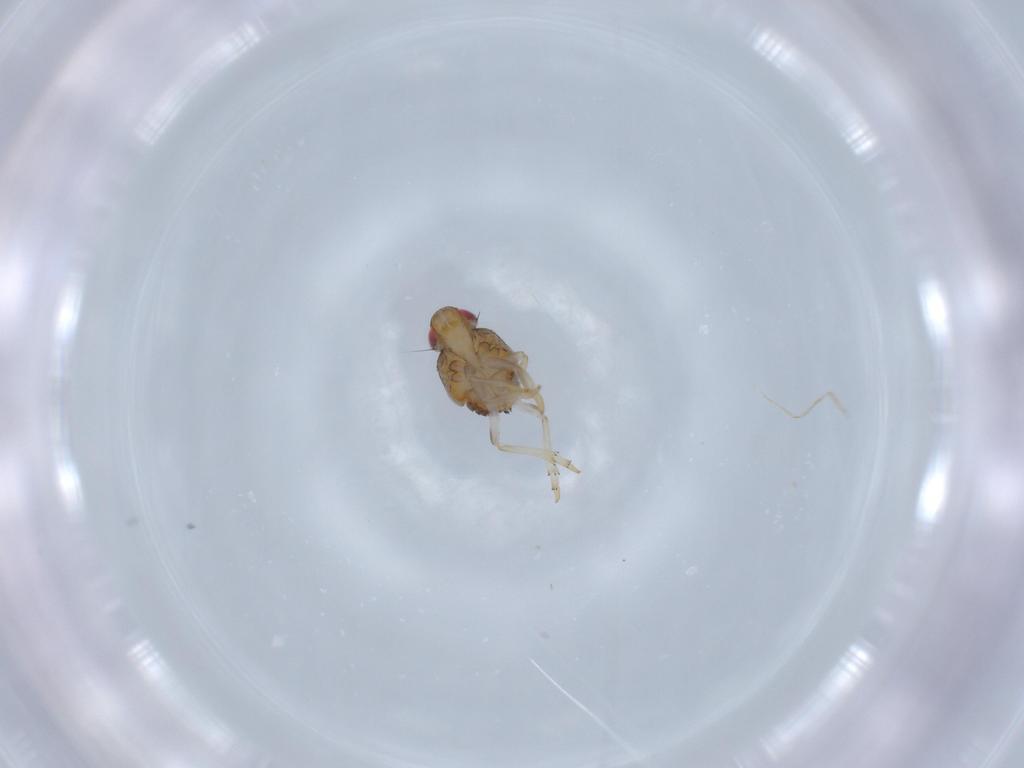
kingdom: Animalia
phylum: Arthropoda
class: Insecta
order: Hemiptera
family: Issidae
